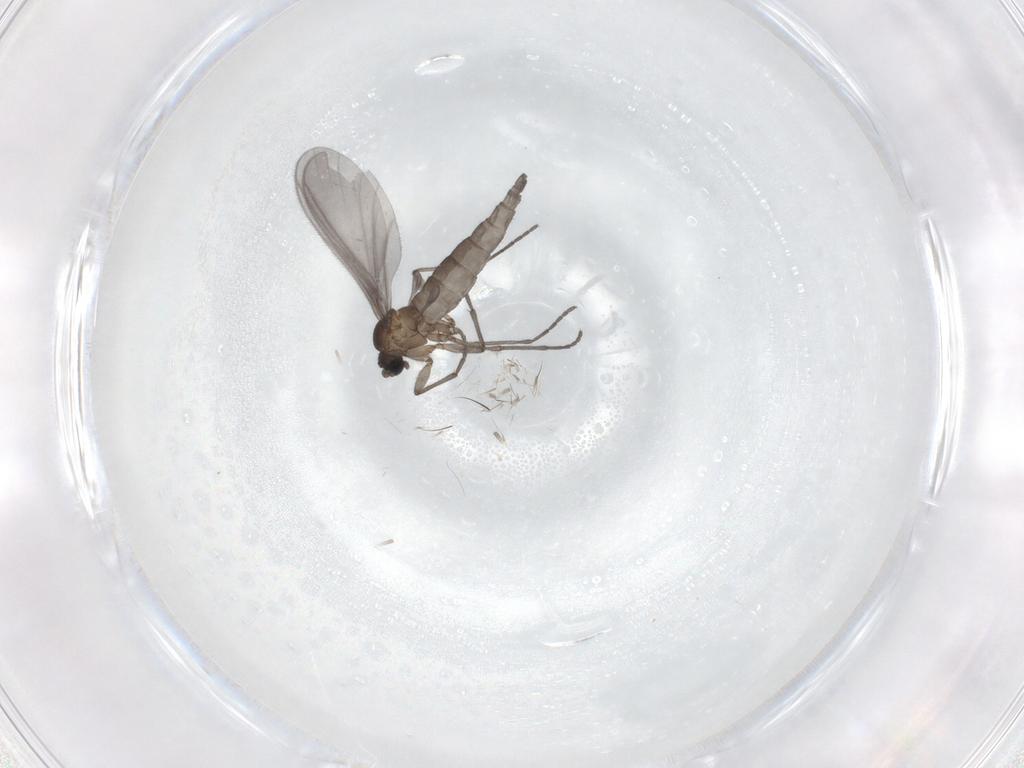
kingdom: Animalia
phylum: Arthropoda
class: Insecta
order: Diptera
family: Sciaridae
